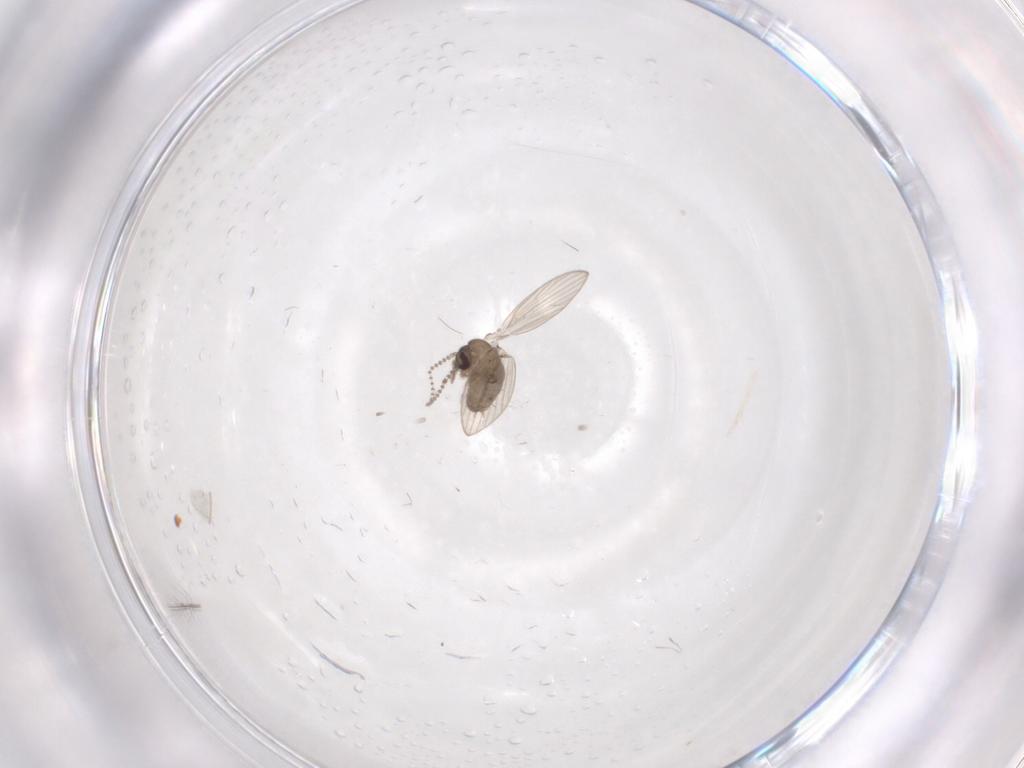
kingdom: Animalia
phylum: Arthropoda
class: Insecta
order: Diptera
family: Psychodidae
